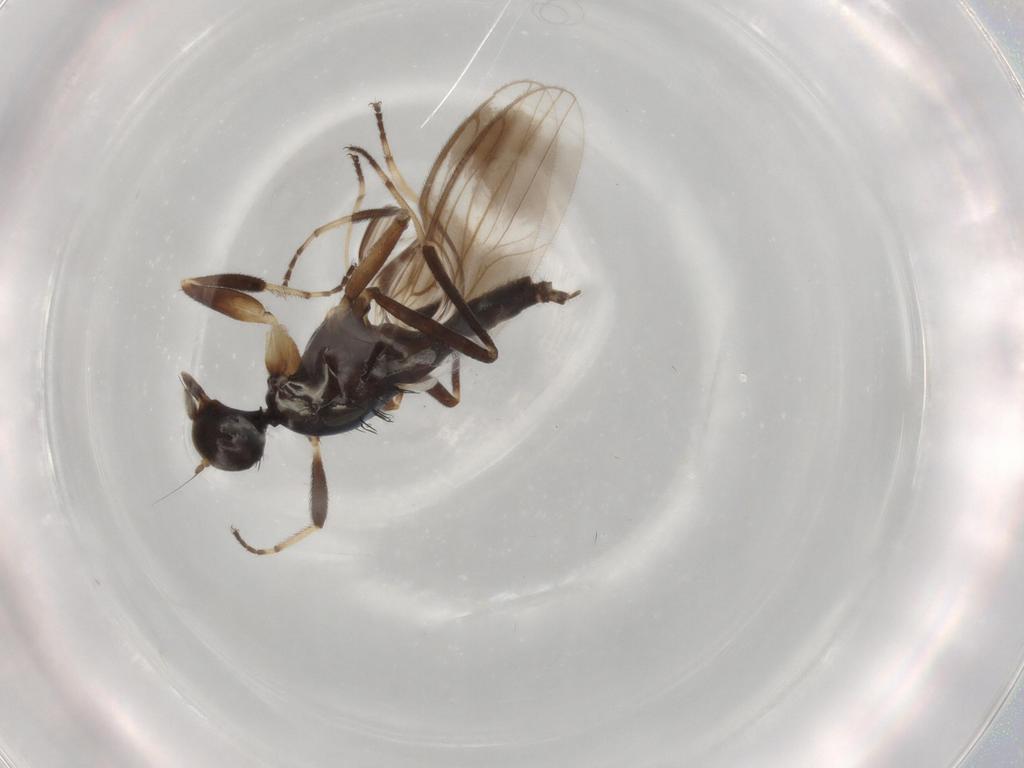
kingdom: Animalia
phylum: Arthropoda
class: Insecta
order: Diptera
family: Hybotidae
